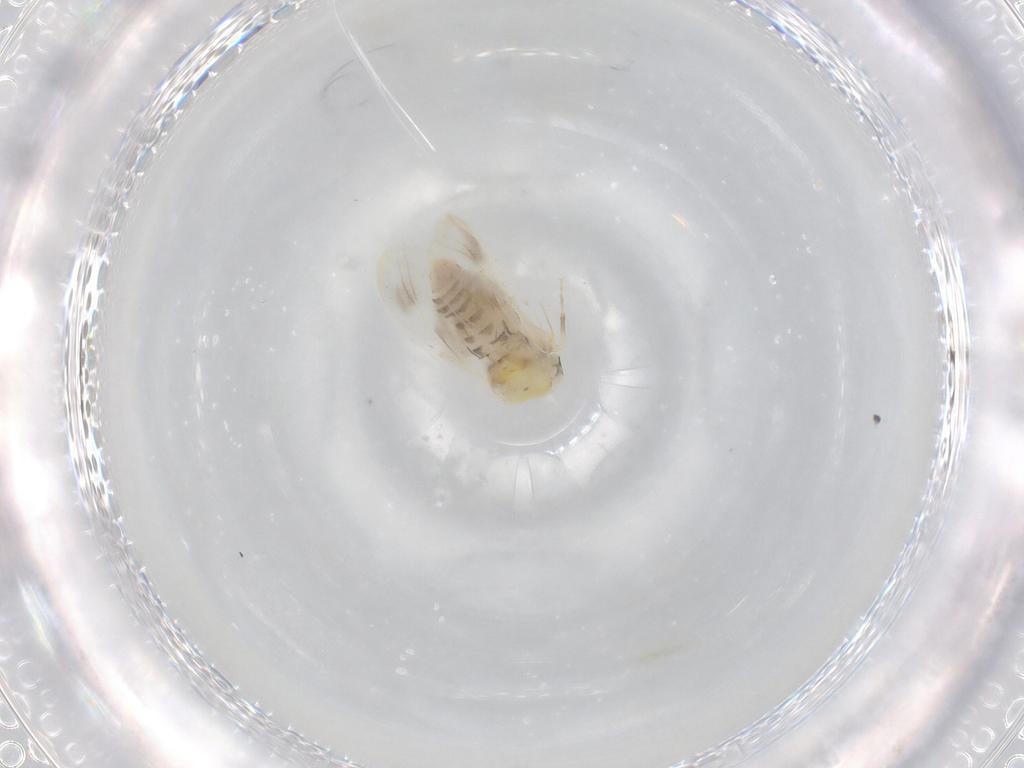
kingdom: Animalia
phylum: Arthropoda
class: Insecta
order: Hemiptera
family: Aleyrodidae
